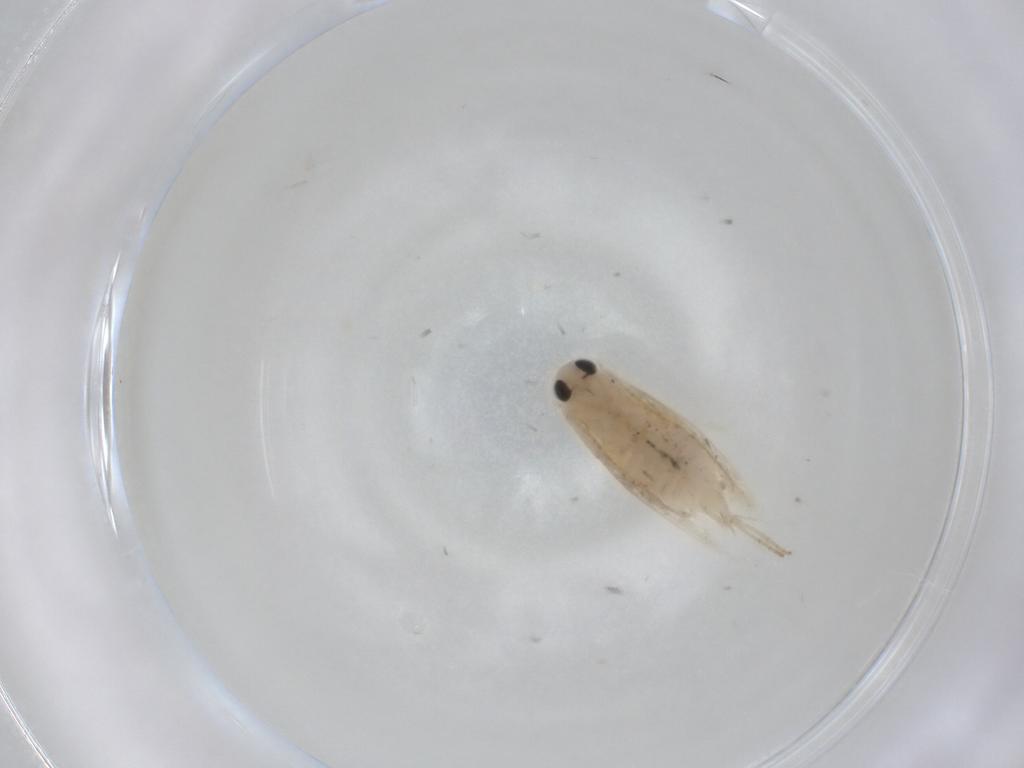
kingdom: Animalia
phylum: Arthropoda
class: Insecta
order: Lepidoptera
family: Bucculatricidae
